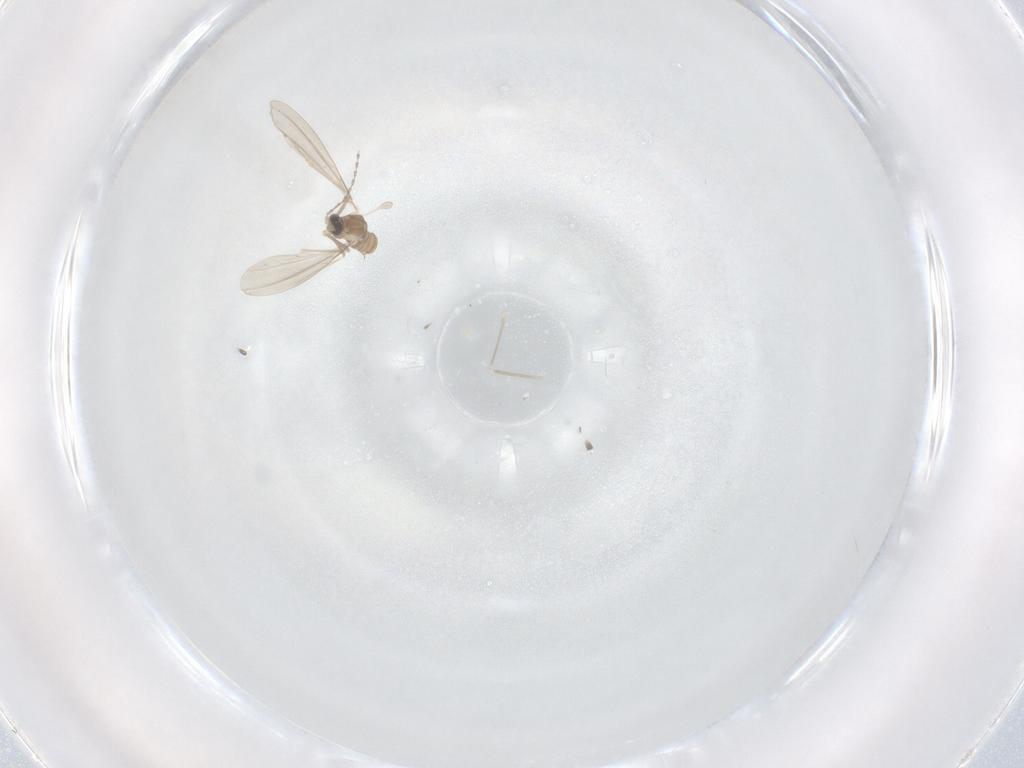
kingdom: Animalia
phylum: Arthropoda
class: Insecta
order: Diptera
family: Cecidomyiidae
